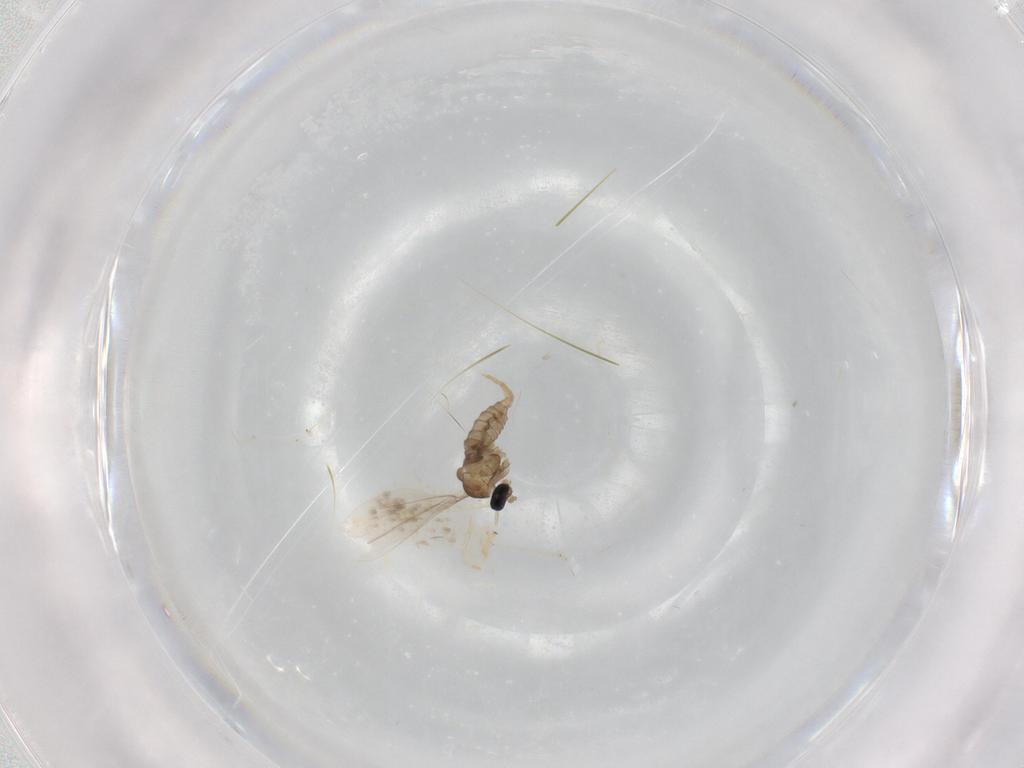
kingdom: Animalia
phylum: Arthropoda
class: Insecta
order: Diptera
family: Cecidomyiidae
